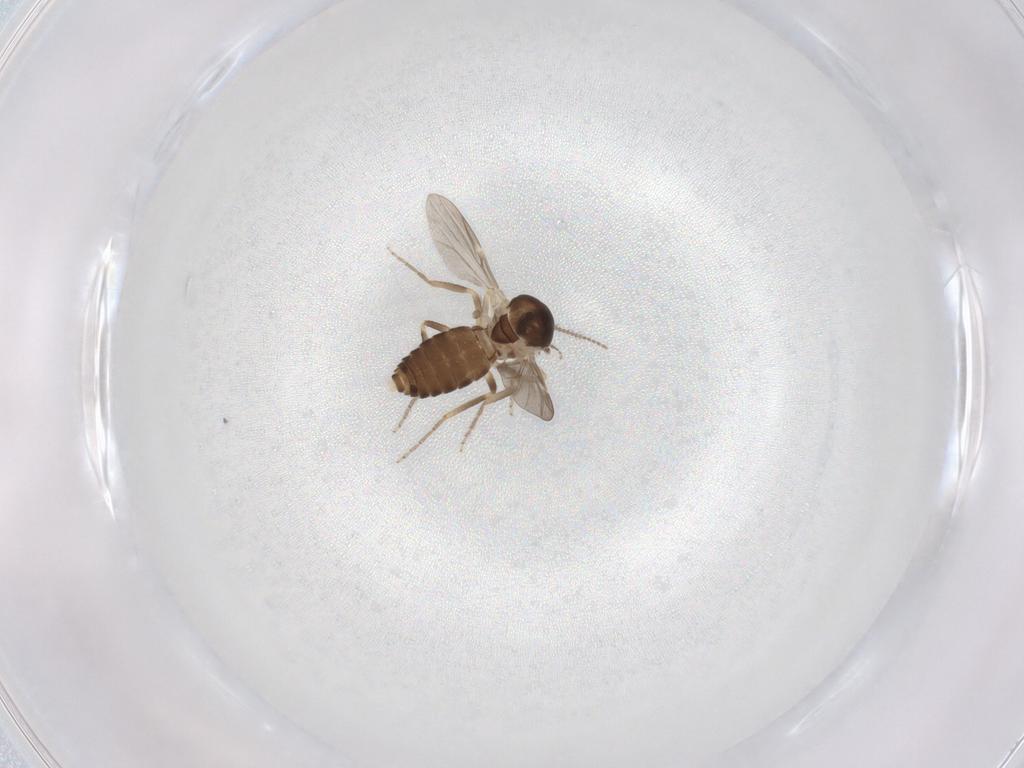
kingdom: Animalia
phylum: Arthropoda
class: Insecta
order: Diptera
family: Ceratopogonidae
